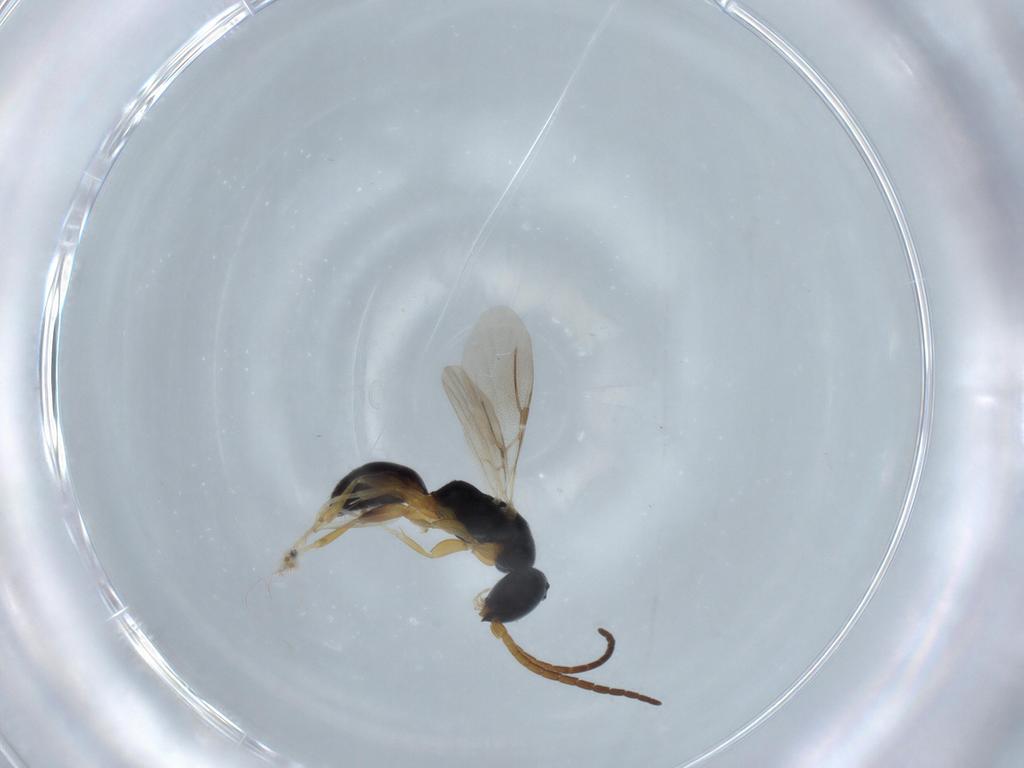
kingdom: Animalia
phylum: Arthropoda
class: Insecta
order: Hymenoptera
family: Bethylidae
